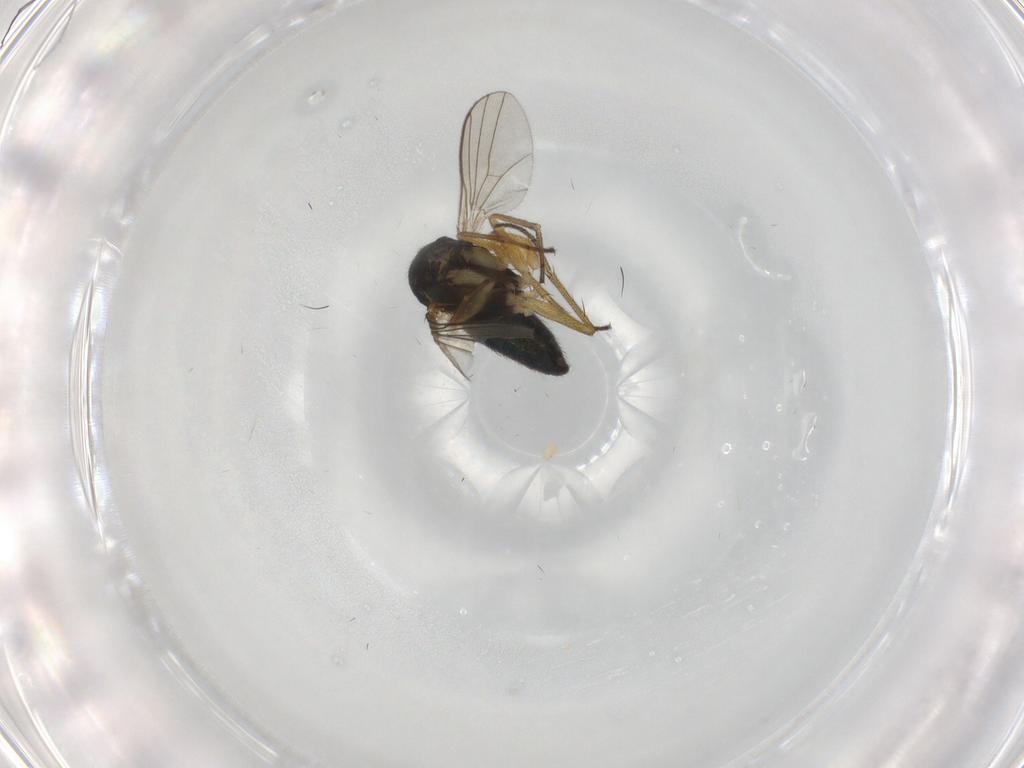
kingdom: Animalia
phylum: Arthropoda
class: Insecta
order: Diptera
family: Dolichopodidae
